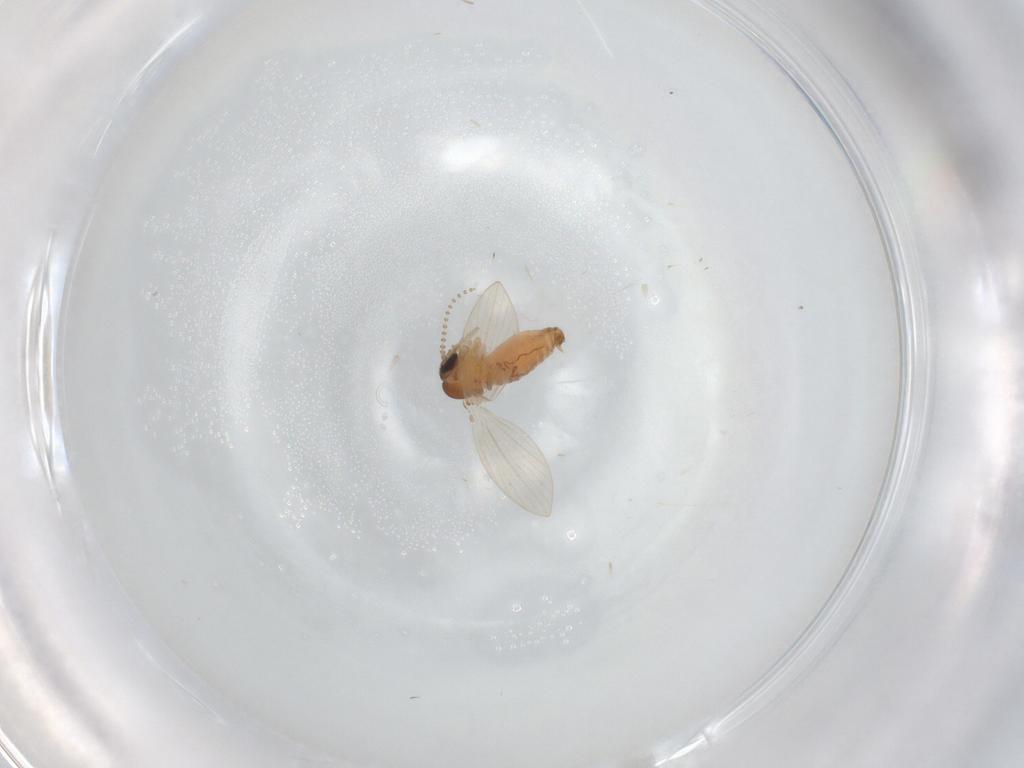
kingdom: Animalia
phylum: Arthropoda
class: Insecta
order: Diptera
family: Psychodidae
